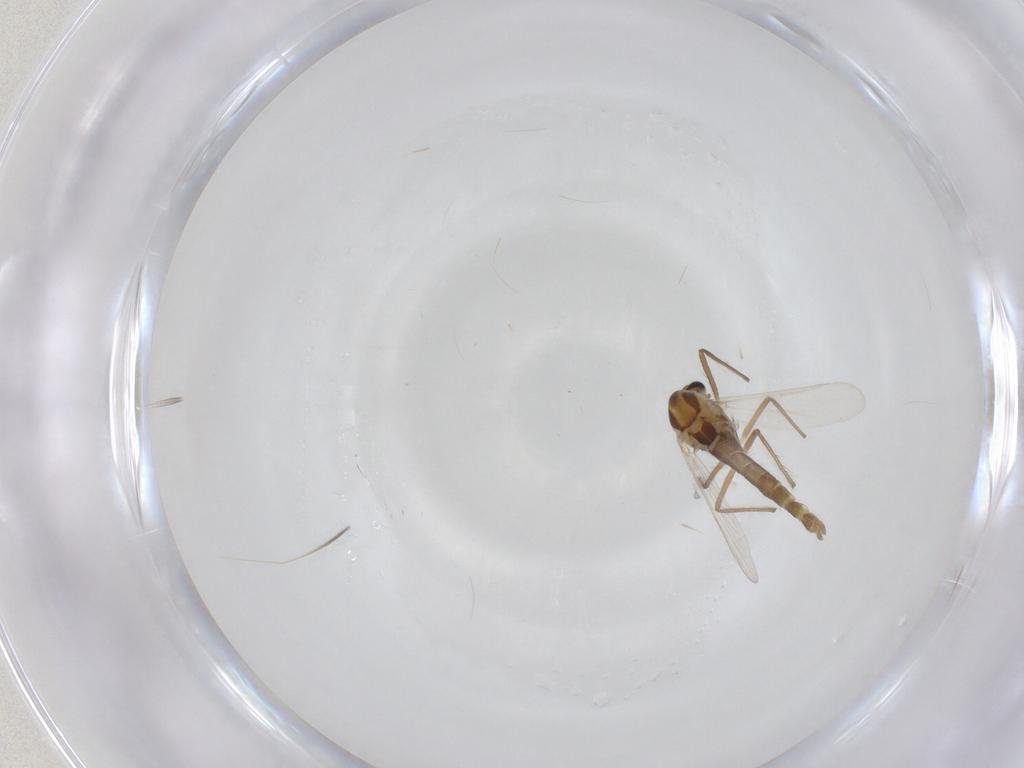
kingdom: Animalia
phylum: Arthropoda
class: Insecta
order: Diptera
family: Chironomidae
